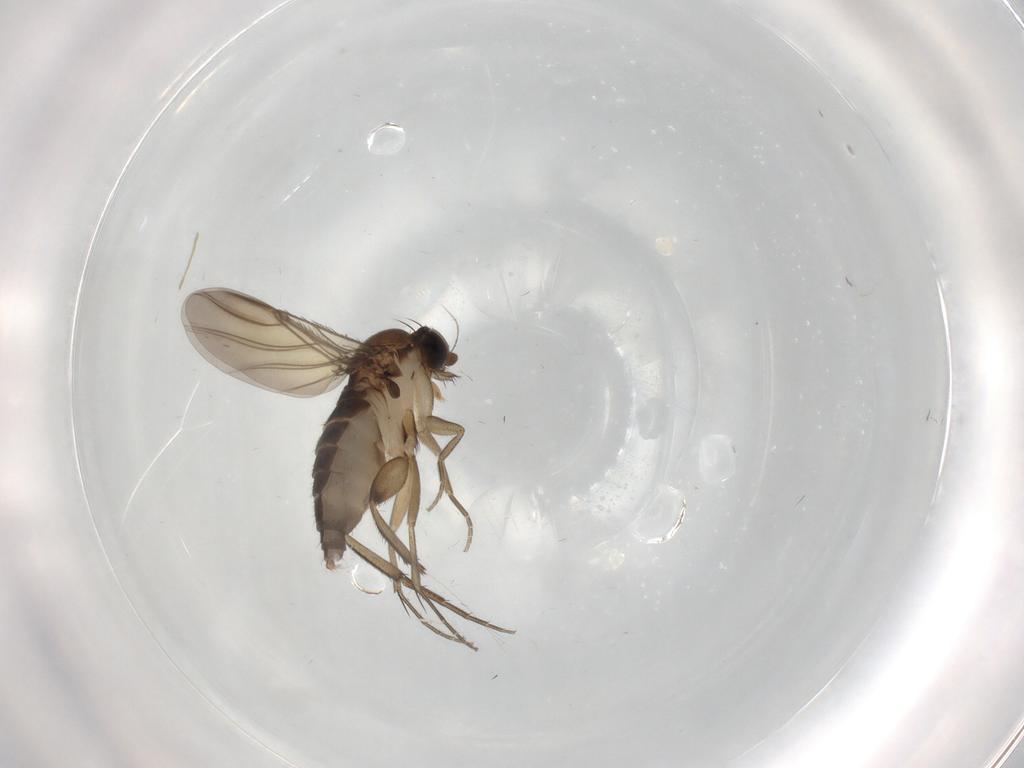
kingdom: Animalia
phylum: Arthropoda
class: Insecta
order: Diptera
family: Phoridae
